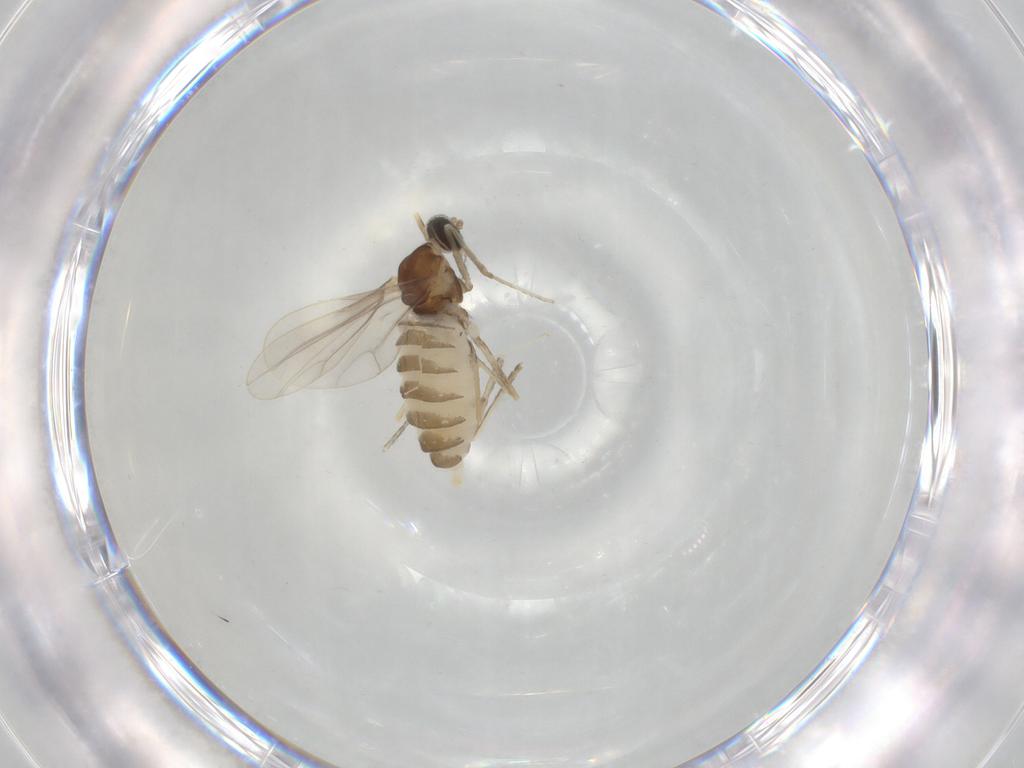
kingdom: Animalia
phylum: Arthropoda
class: Insecta
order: Diptera
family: Cecidomyiidae
